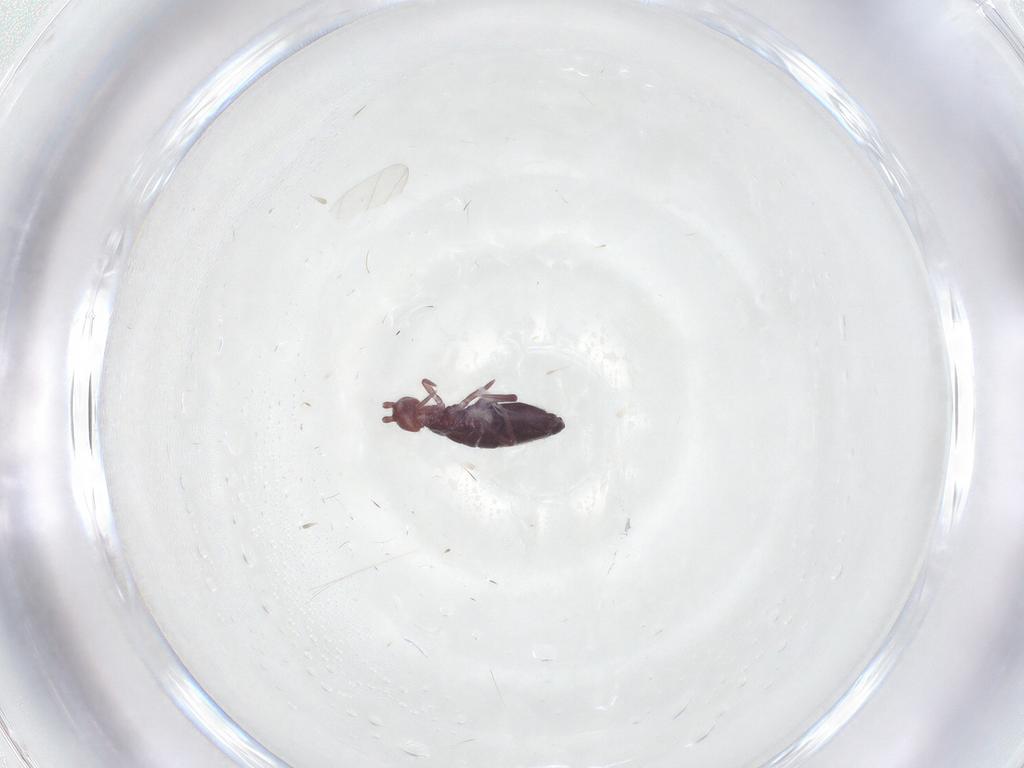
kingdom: Animalia
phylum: Arthropoda
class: Collembola
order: Entomobryomorpha
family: Entomobryidae
